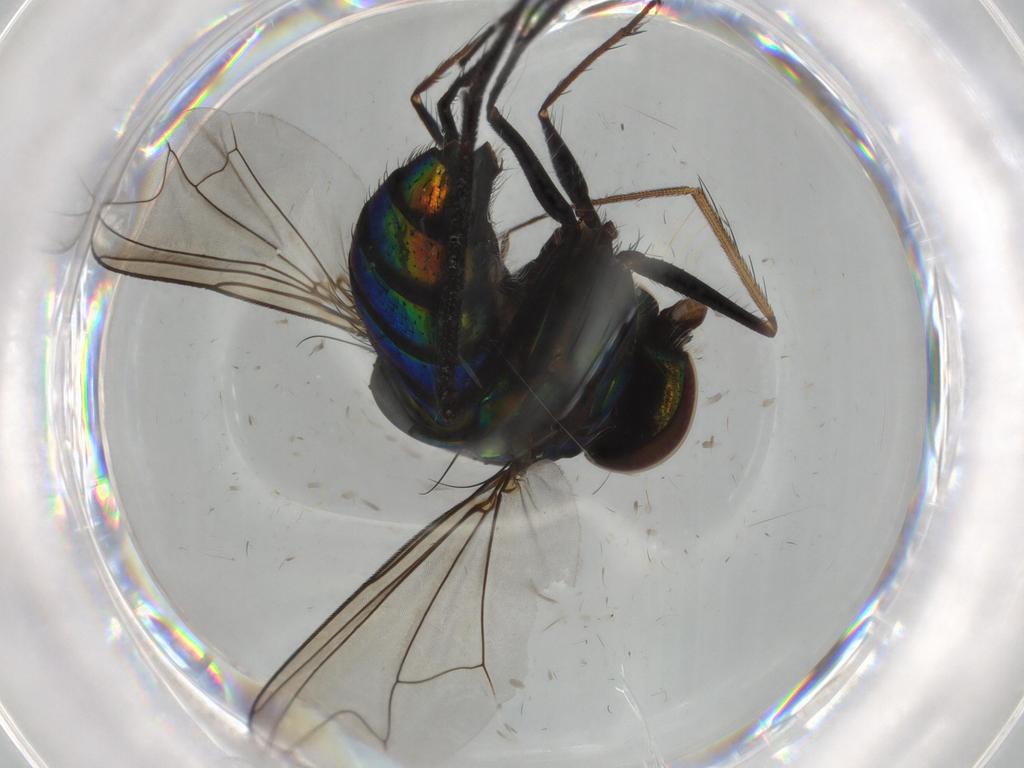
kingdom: Animalia
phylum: Arthropoda
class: Insecta
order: Diptera
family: Dolichopodidae
